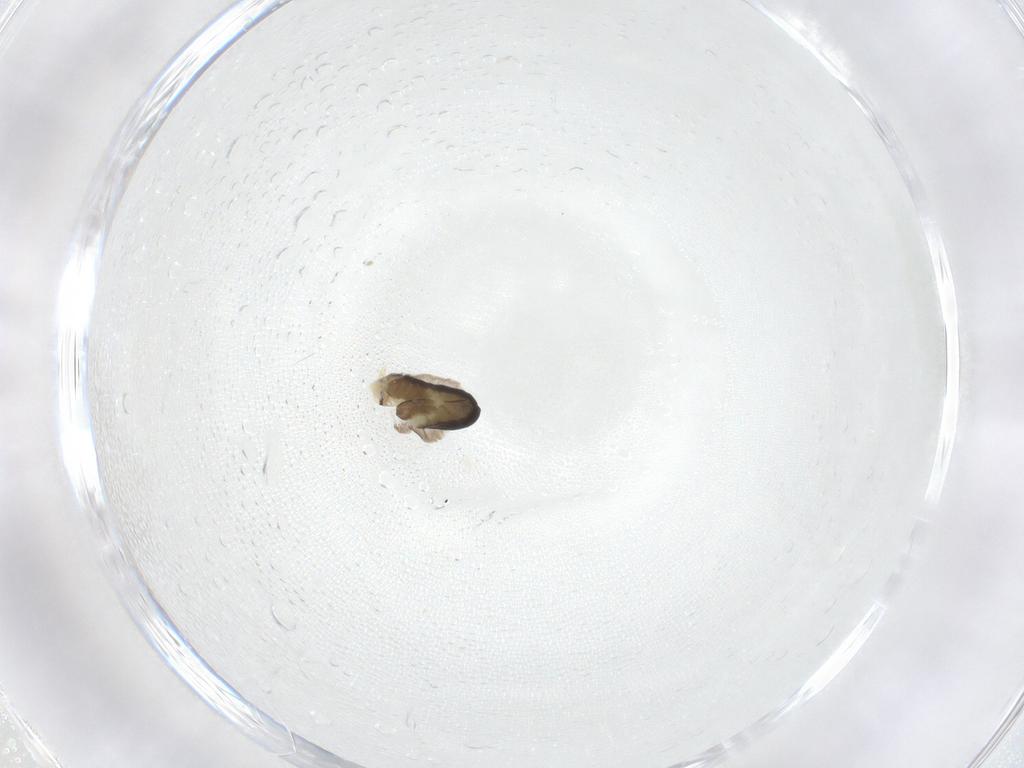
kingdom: Animalia
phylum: Arthropoda
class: Insecta
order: Hymenoptera
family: Dryinidae
